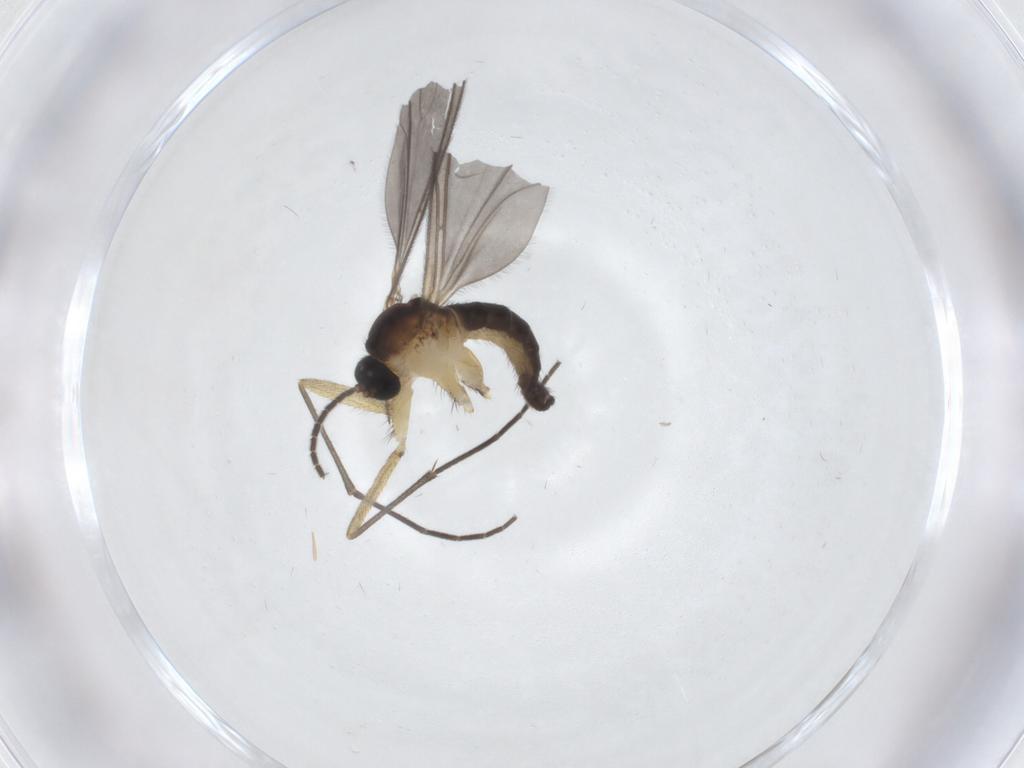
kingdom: Animalia
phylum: Arthropoda
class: Insecta
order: Diptera
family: Sciaridae
